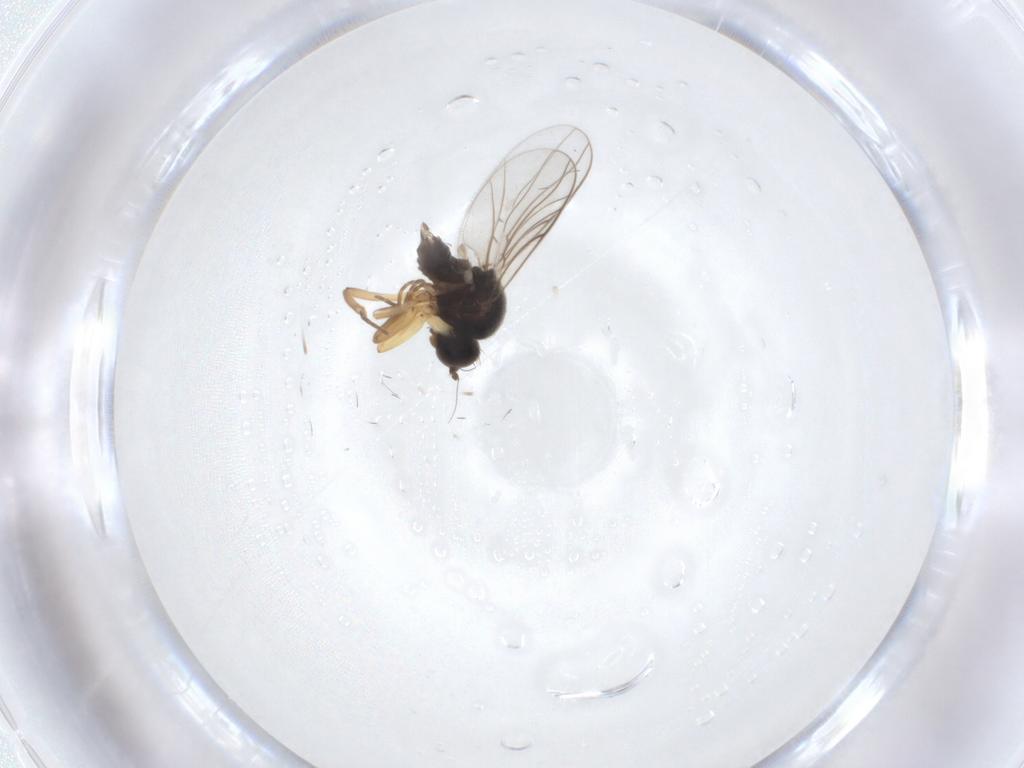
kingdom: Animalia
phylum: Arthropoda
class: Insecta
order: Diptera
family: Hybotidae
